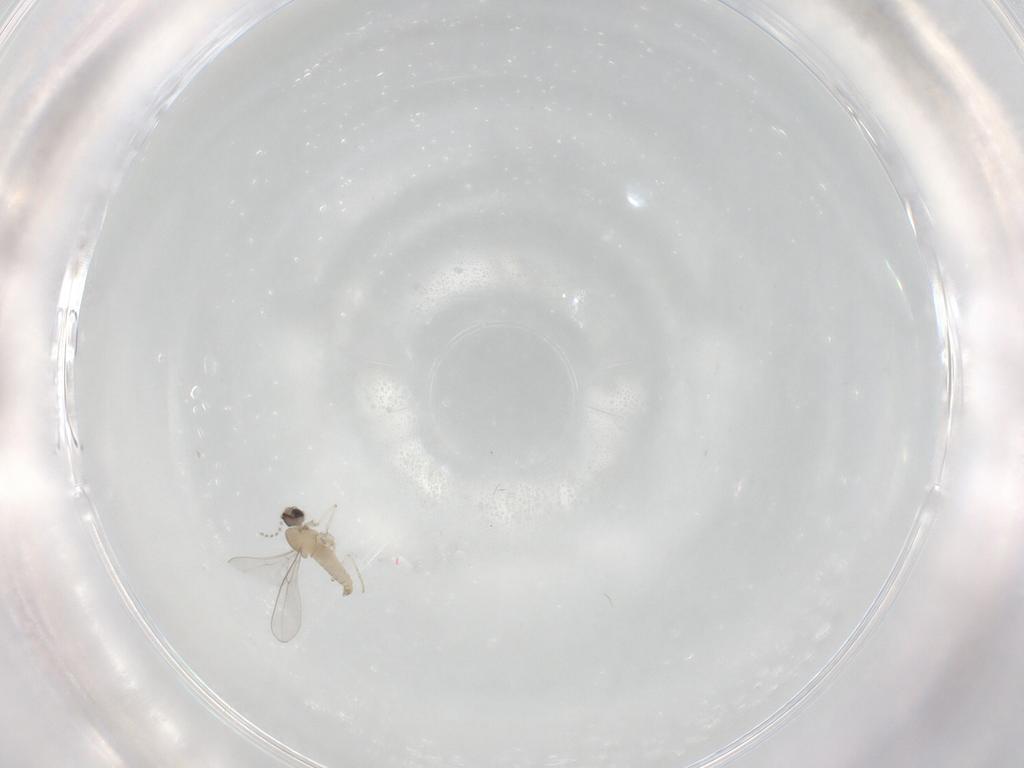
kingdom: Animalia
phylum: Arthropoda
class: Insecta
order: Diptera
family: Cecidomyiidae
